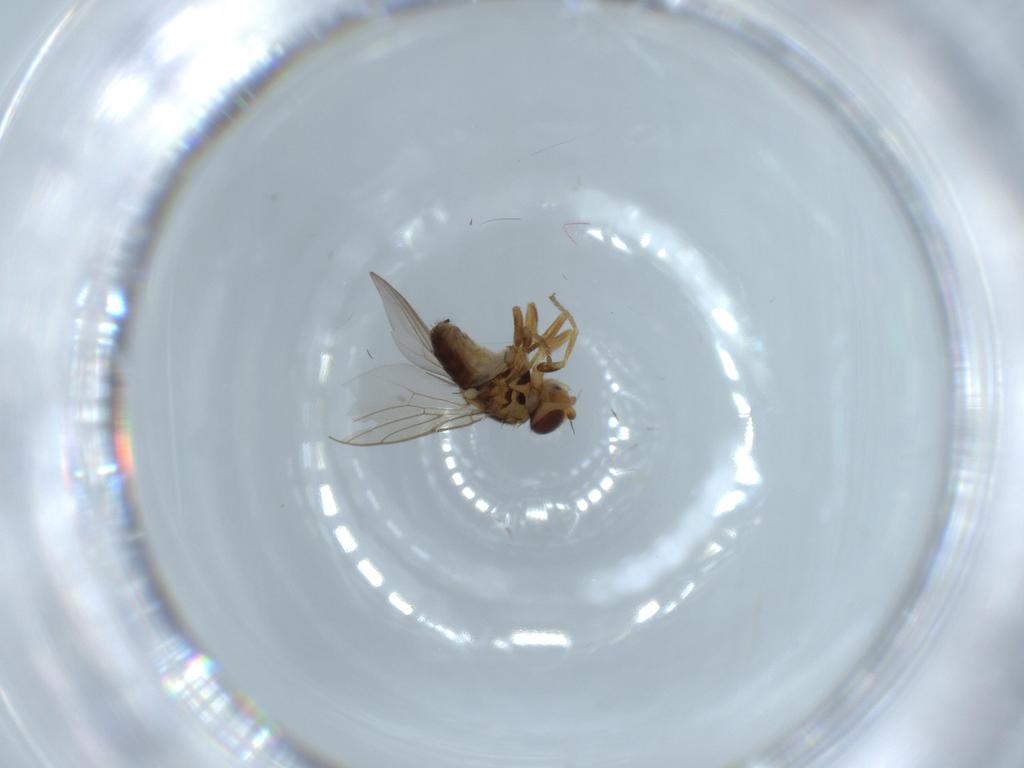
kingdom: Animalia
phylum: Arthropoda
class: Insecta
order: Diptera
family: Chloropidae
